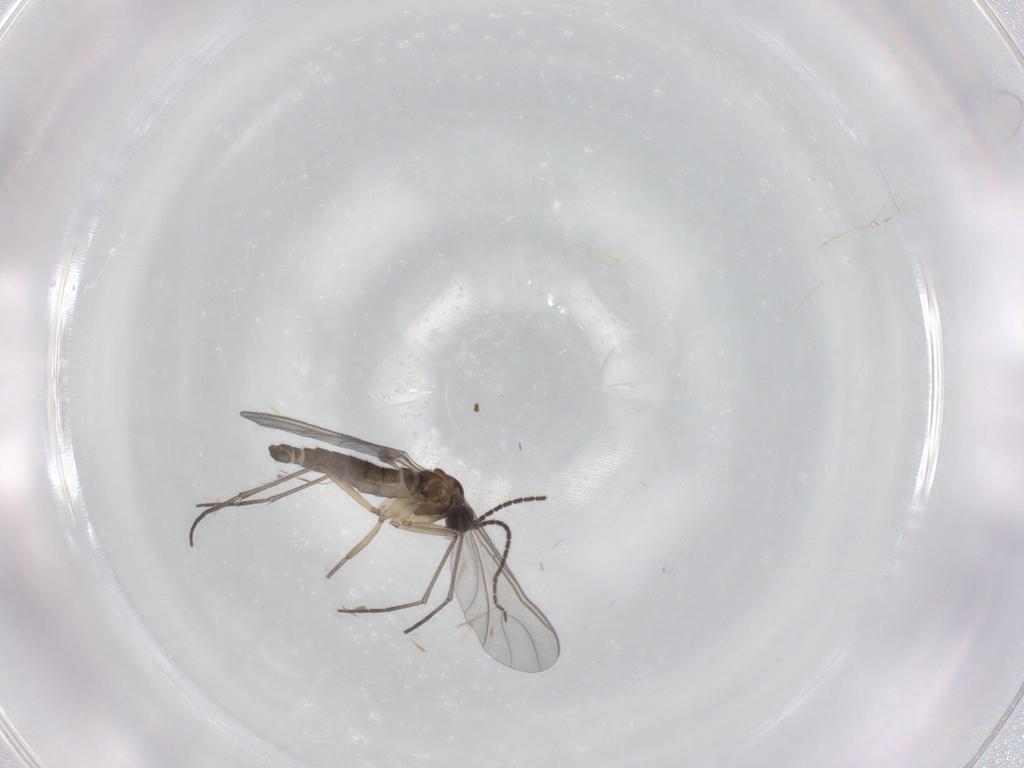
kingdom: Animalia
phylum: Arthropoda
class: Insecta
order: Diptera
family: Sciaridae
